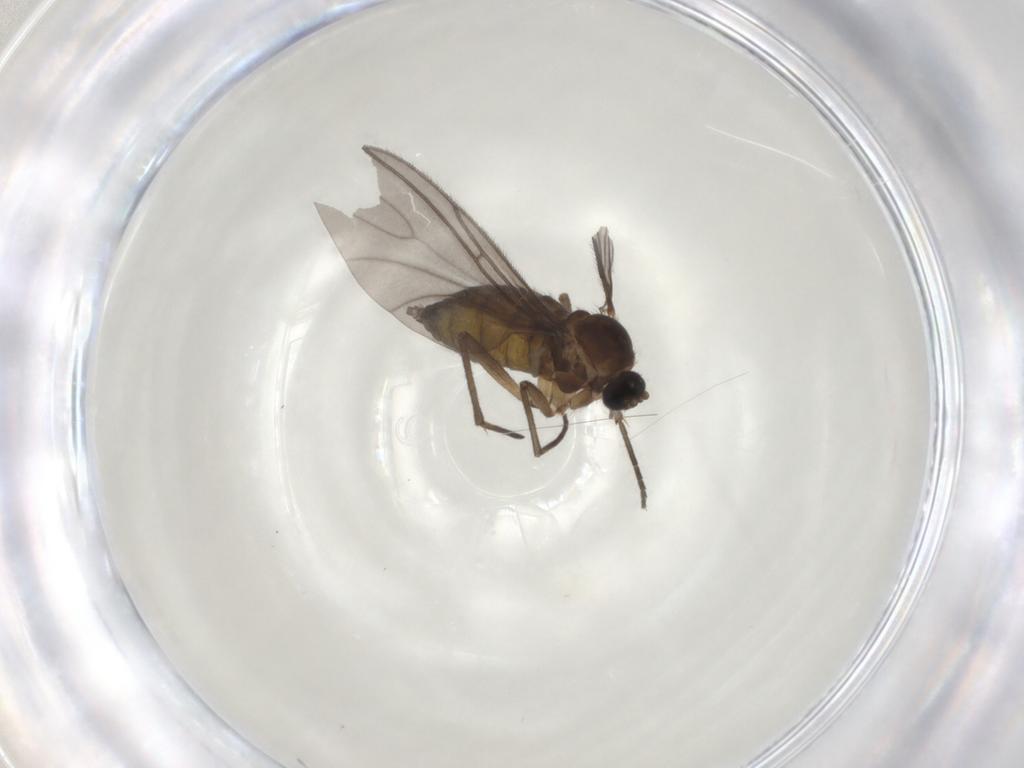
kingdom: Animalia
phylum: Arthropoda
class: Insecta
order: Diptera
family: Sciaridae
